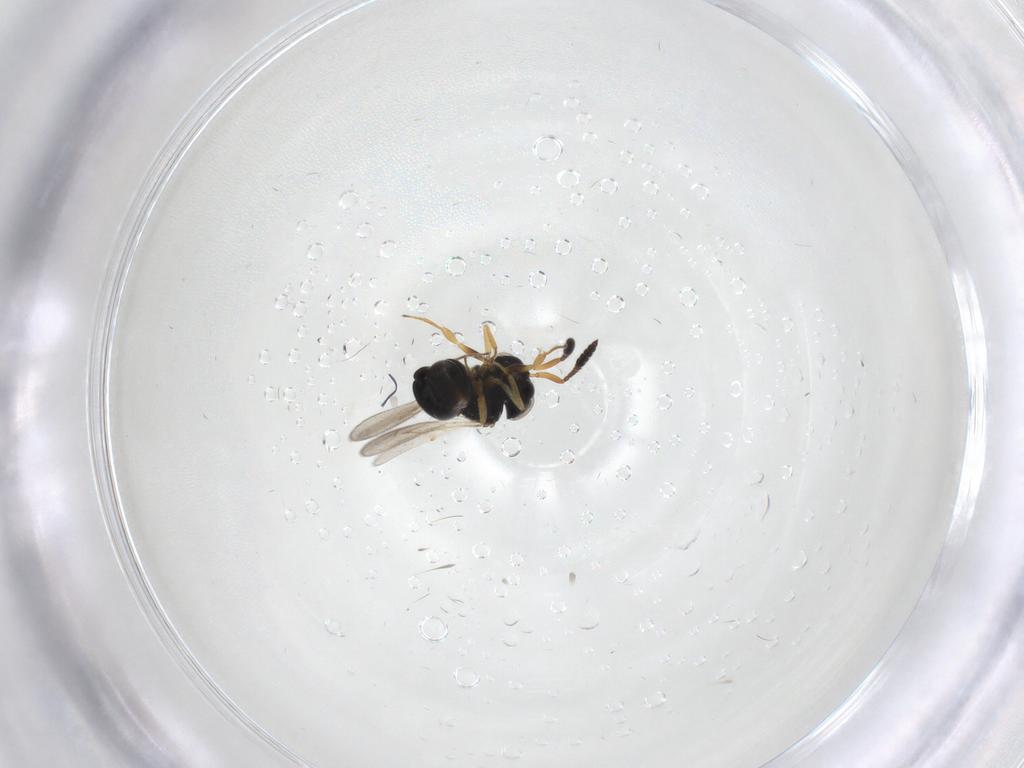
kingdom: Animalia
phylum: Arthropoda
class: Insecta
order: Hymenoptera
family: Scelionidae
